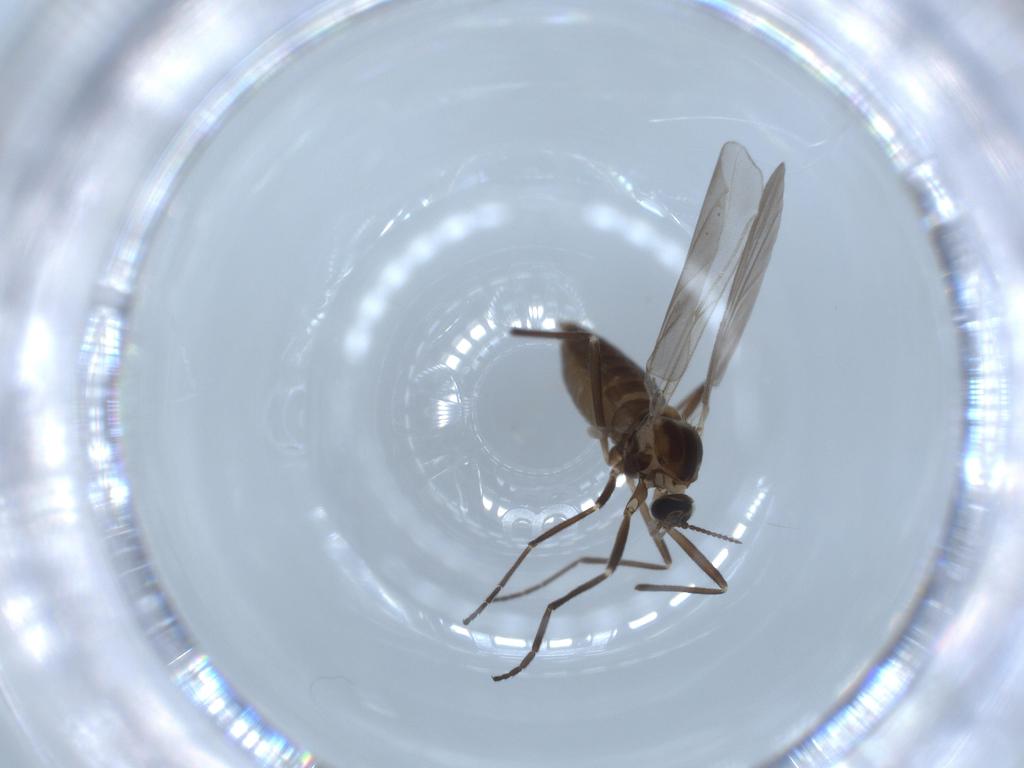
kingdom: Animalia
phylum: Arthropoda
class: Insecta
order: Diptera
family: Cecidomyiidae
